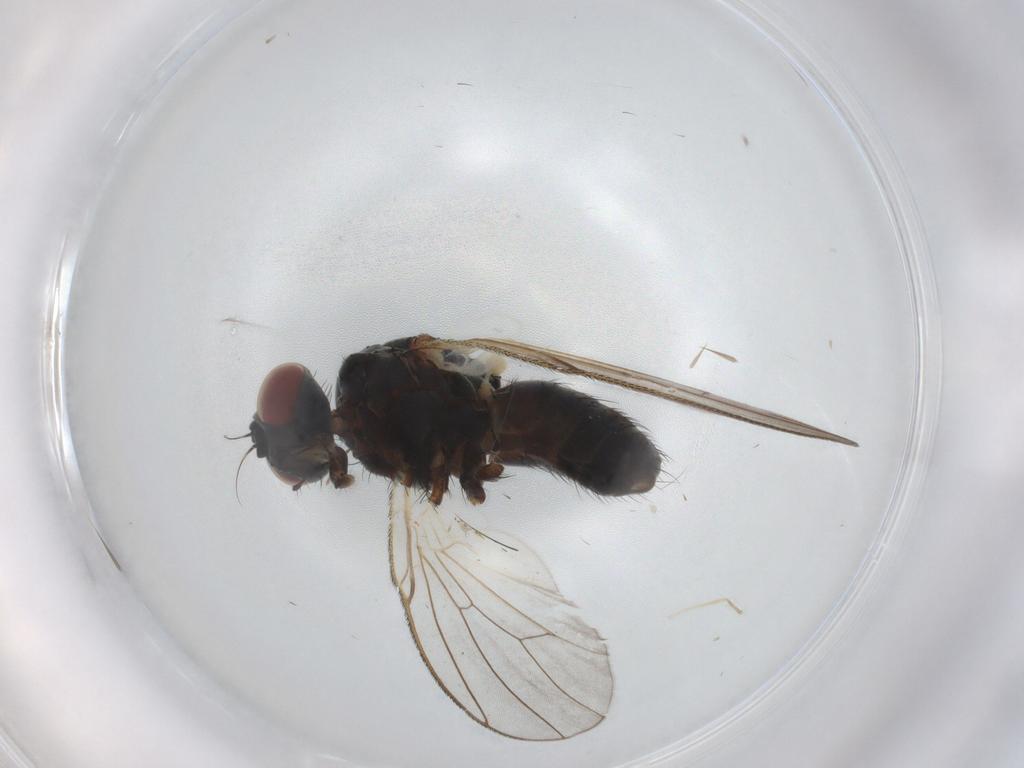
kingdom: Animalia
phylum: Arthropoda
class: Insecta
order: Diptera
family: Muscidae
